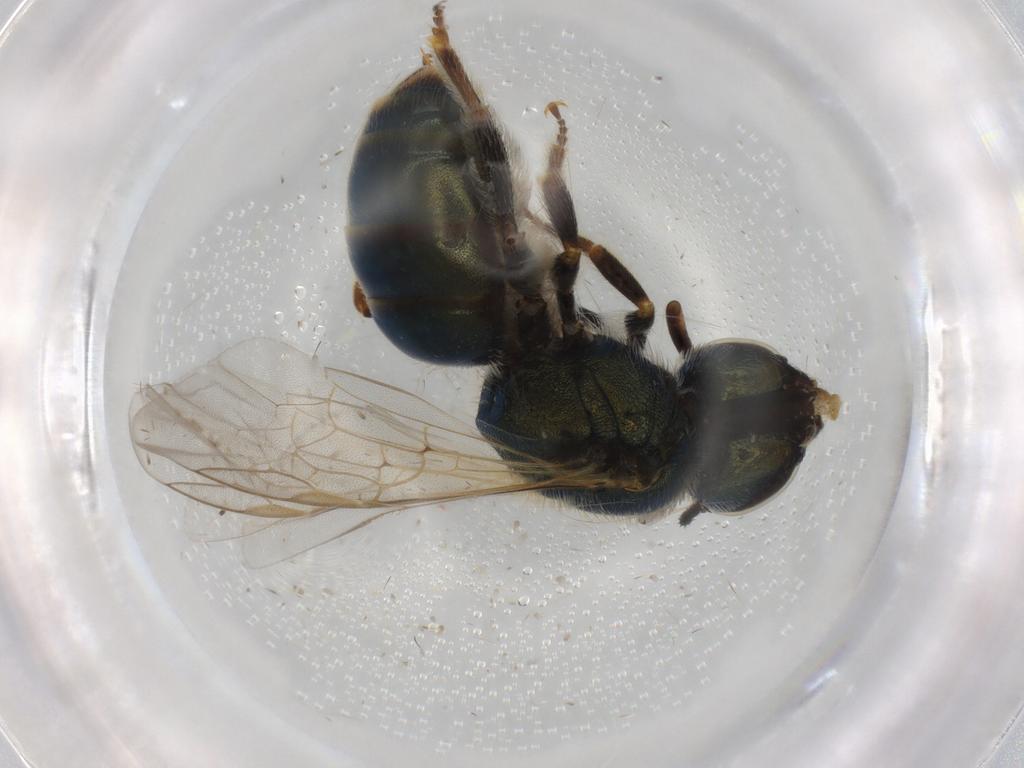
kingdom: Animalia
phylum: Arthropoda
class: Insecta
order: Hymenoptera
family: Halictidae
